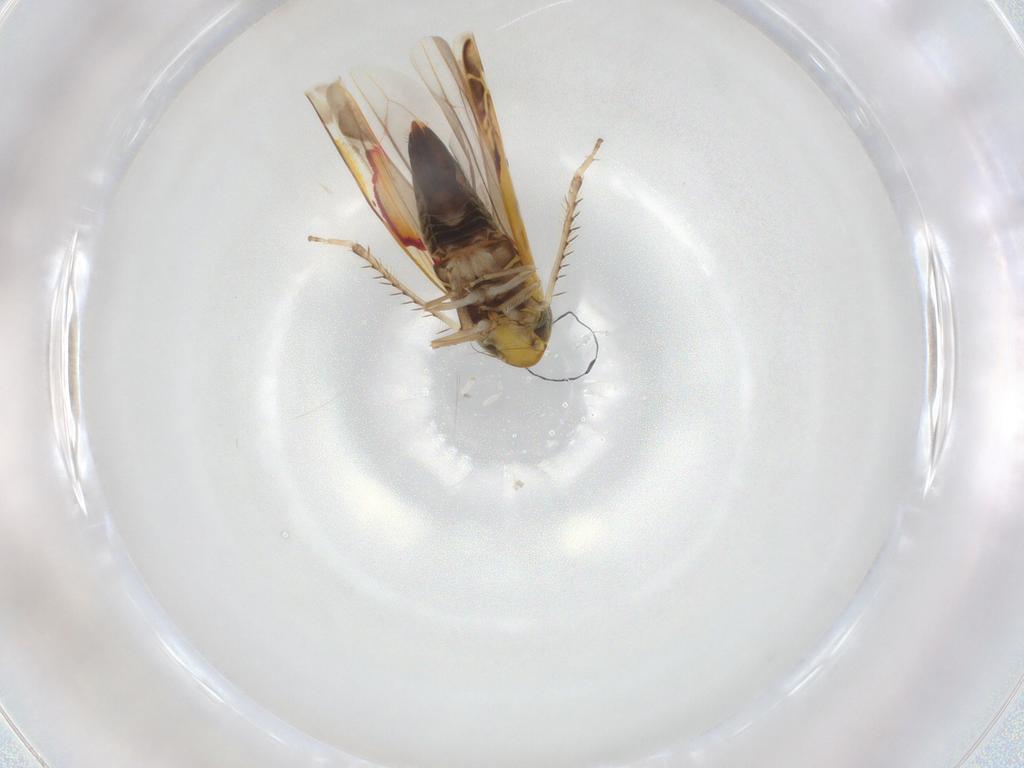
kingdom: Animalia
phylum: Arthropoda
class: Insecta
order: Hemiptera
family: Cicadellidae
